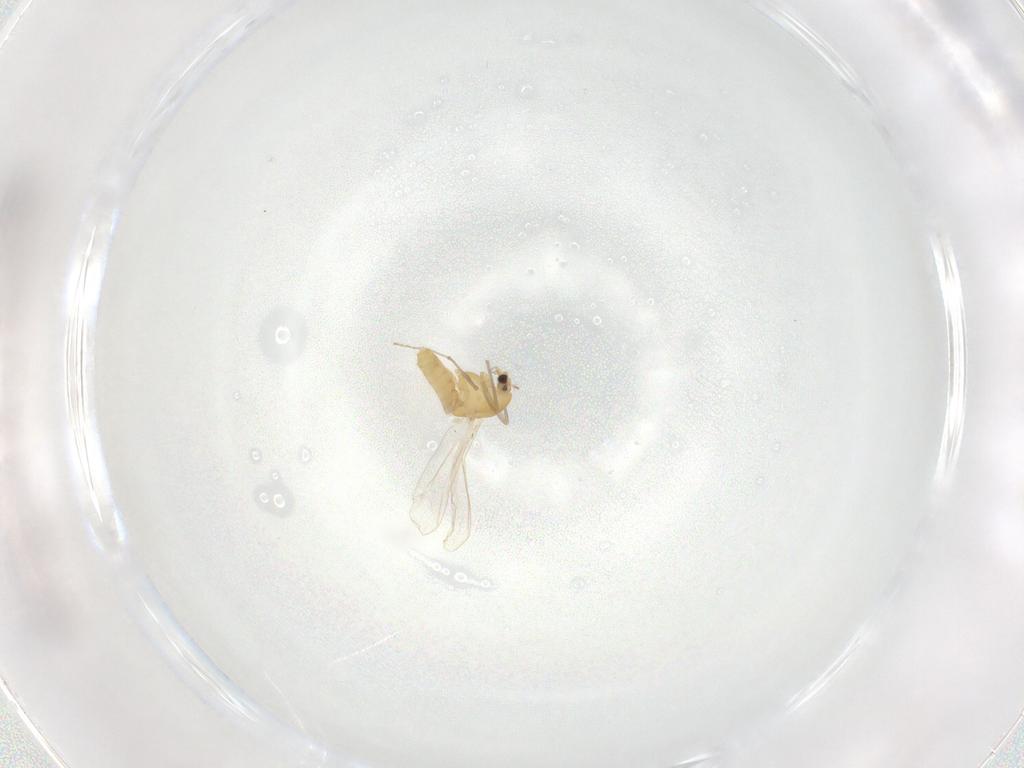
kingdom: Animalia
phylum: Arthropoda
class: Insecta
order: Diptera
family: Chironomidae
